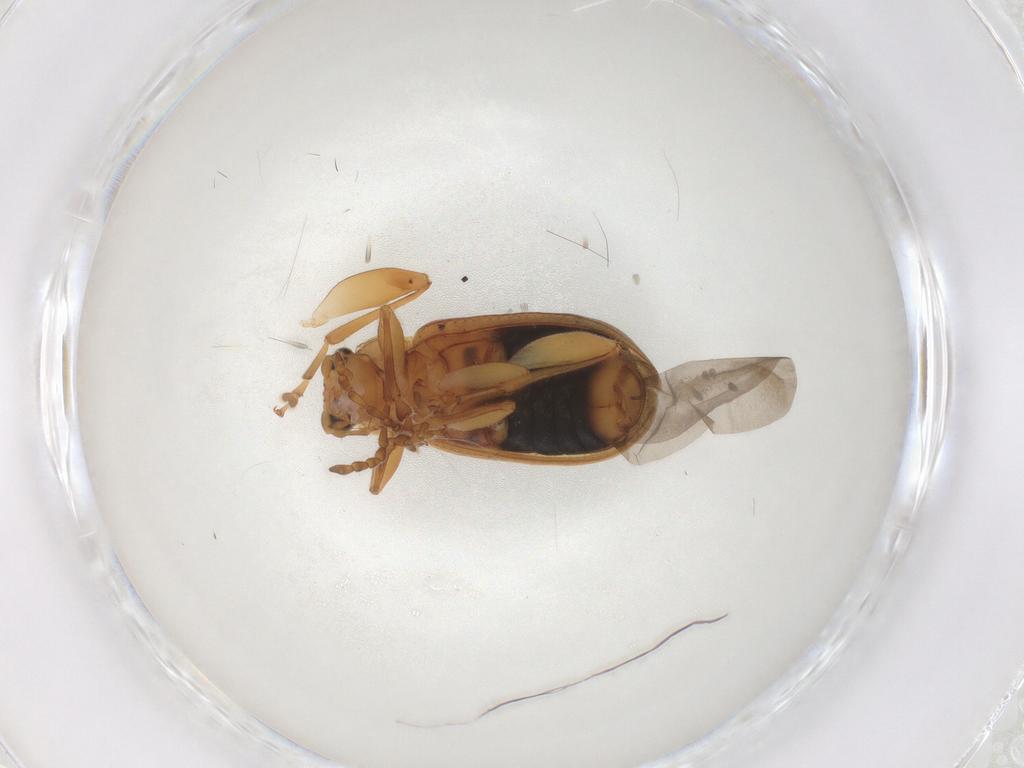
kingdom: Animalia
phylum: Arthropoda
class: Insecta
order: Coleoptera
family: Chrysomelidae
